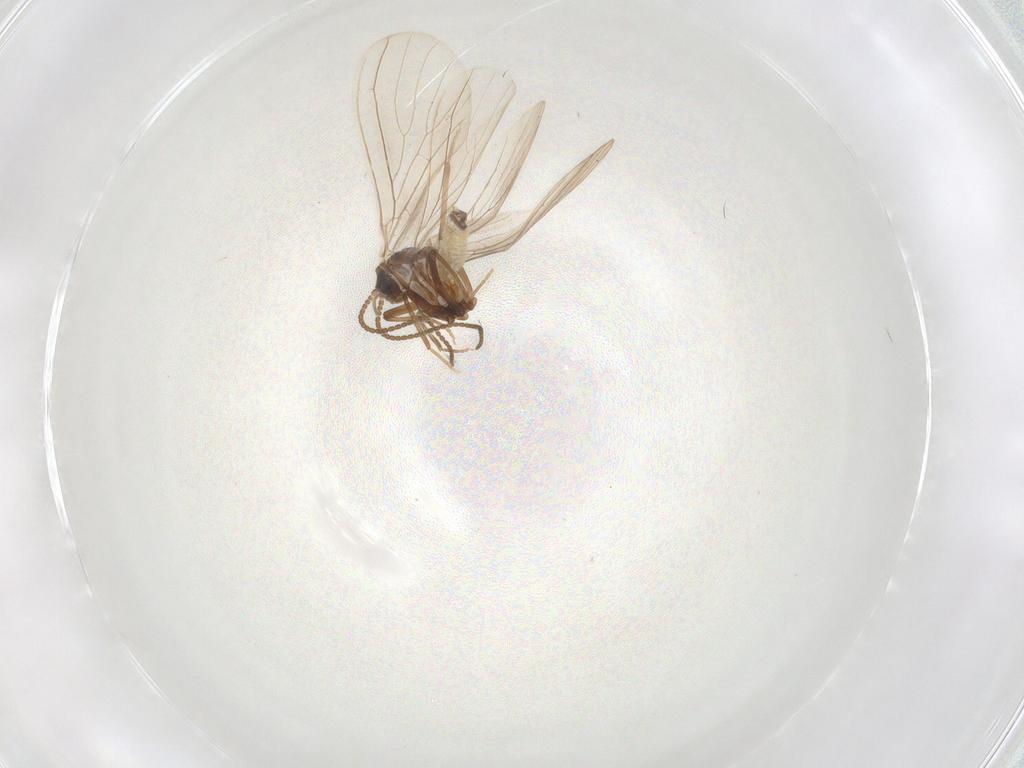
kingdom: Animalia
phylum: Arthropoda
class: Insecta
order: Neuroptera
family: Coniopterygidae
